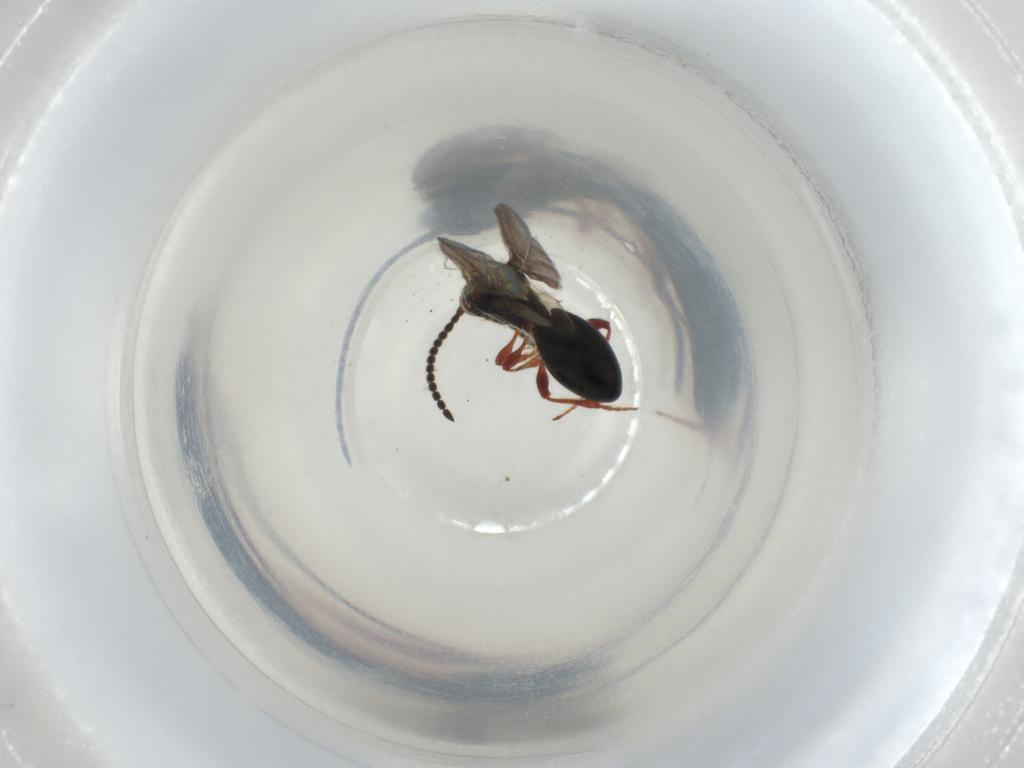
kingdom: Animalia
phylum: Arthropoda
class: Insecta
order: Hymenoptera
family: Diapriidae
